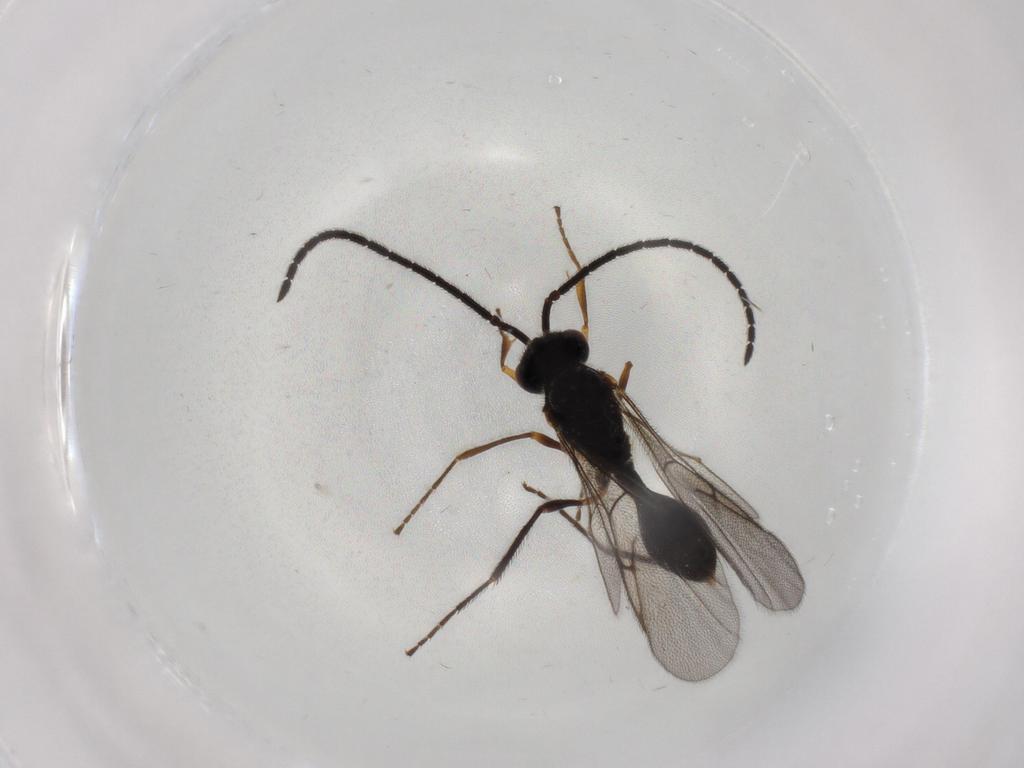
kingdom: Animalia
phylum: Arthropoda
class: Insecta
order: Hymenoptera
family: Diapriidae
